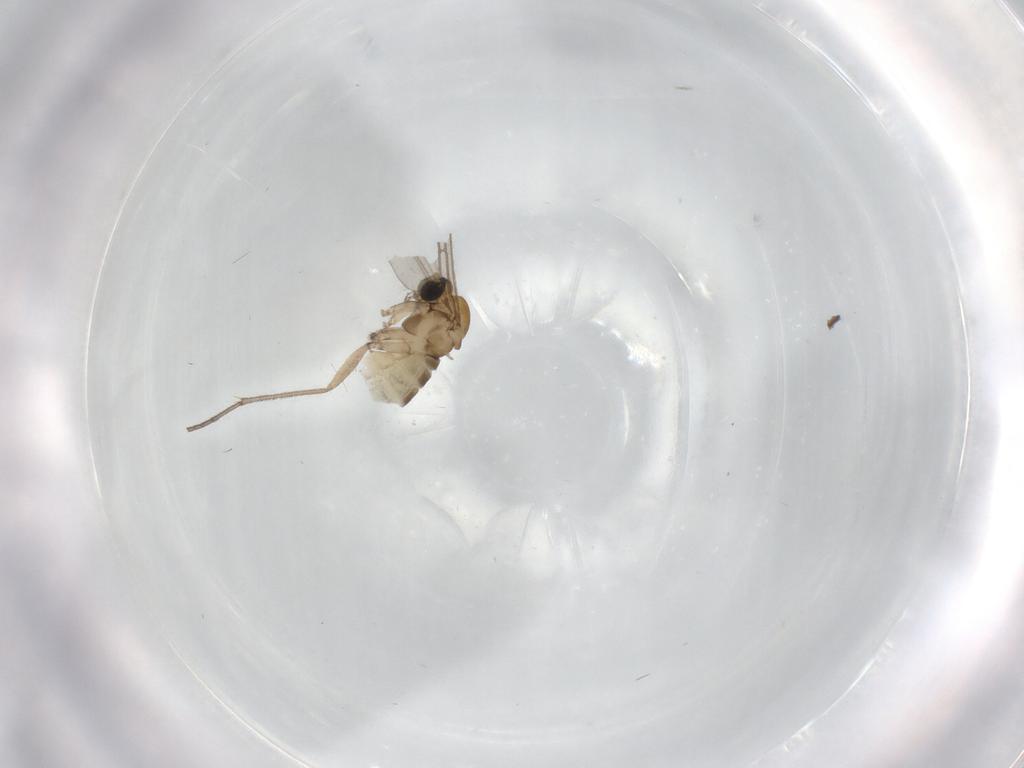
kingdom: Animalia
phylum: Arthropoda
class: Insecta
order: Diptera
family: Sciaridae
